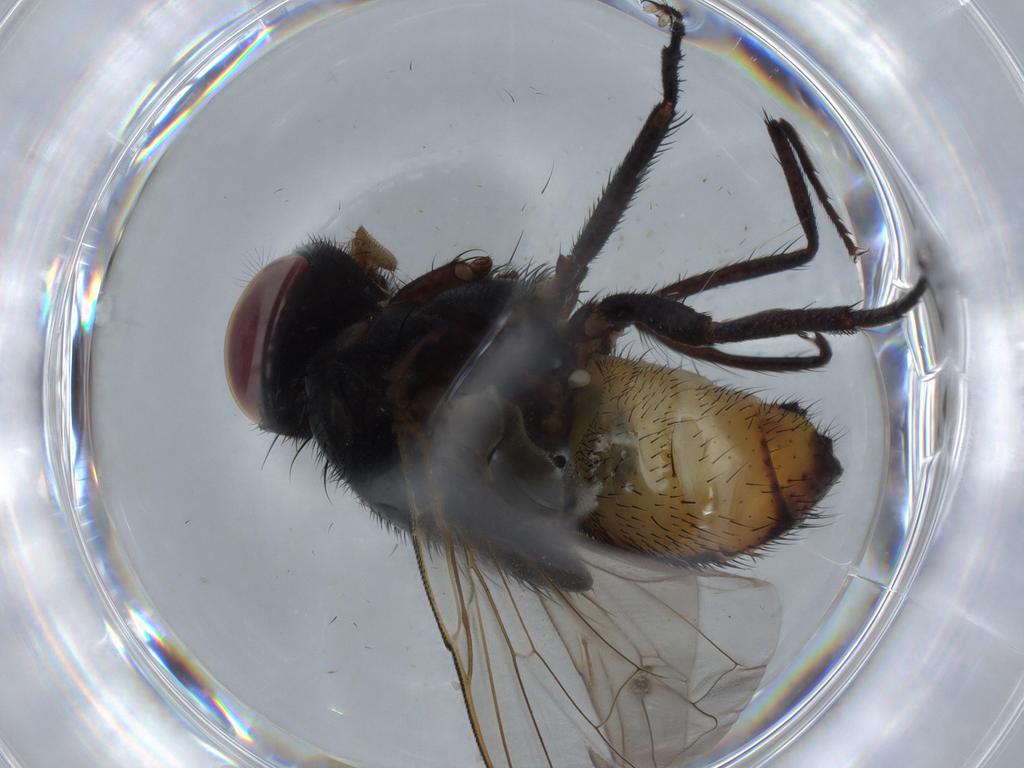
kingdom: Animalia
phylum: Arthropoda
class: Insecta
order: Diptera
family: Muscidae
